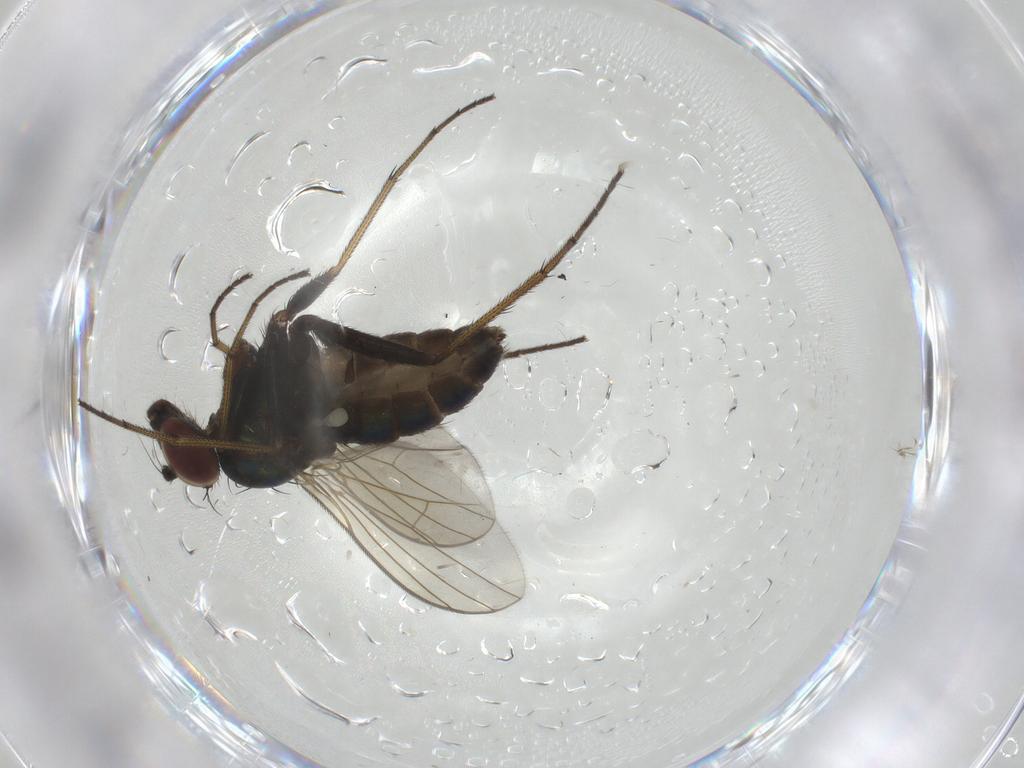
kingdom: Animalia
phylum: Arthropoda
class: Insecta
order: Diptera
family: Dolichopodidae
